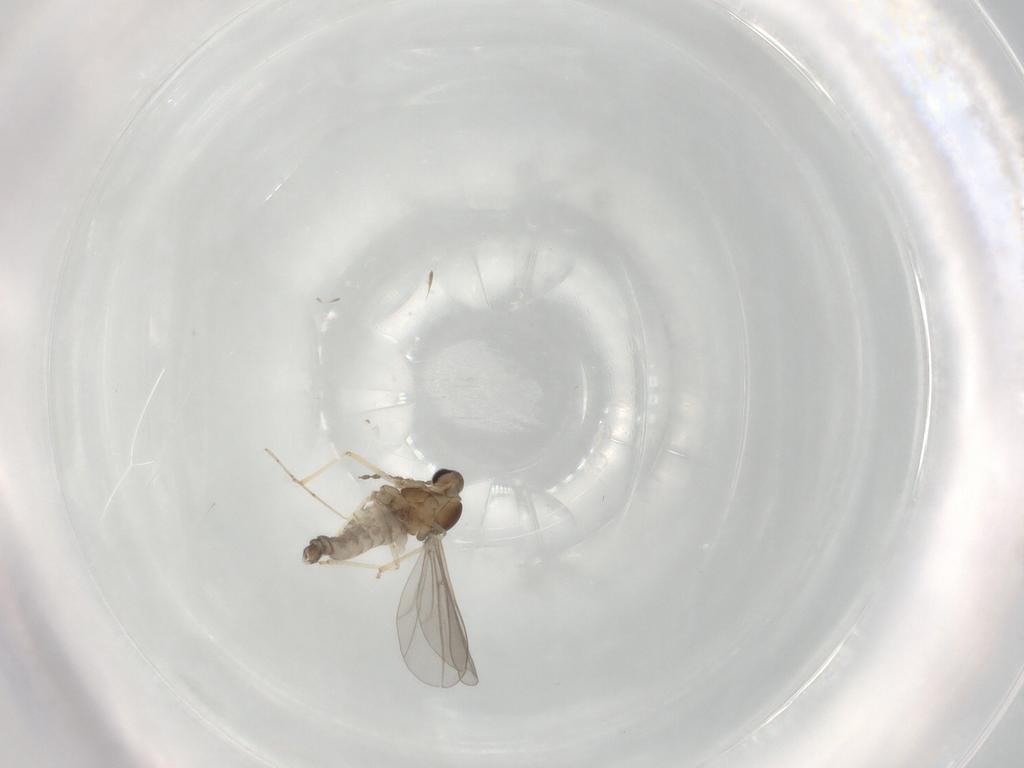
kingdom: Animalia
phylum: Arthropoda
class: Insecta
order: Diptera
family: Cecidomyiidae
